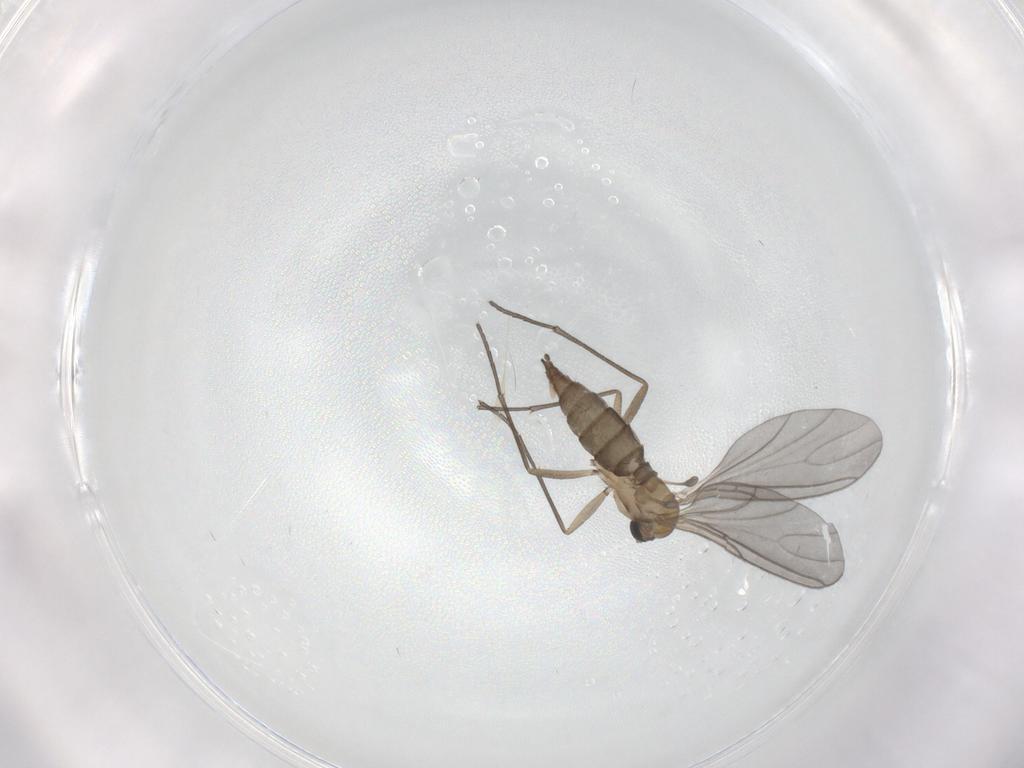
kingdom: Animalia
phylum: Arthropoda
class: Insecta
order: Diptera
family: Sciaridae
